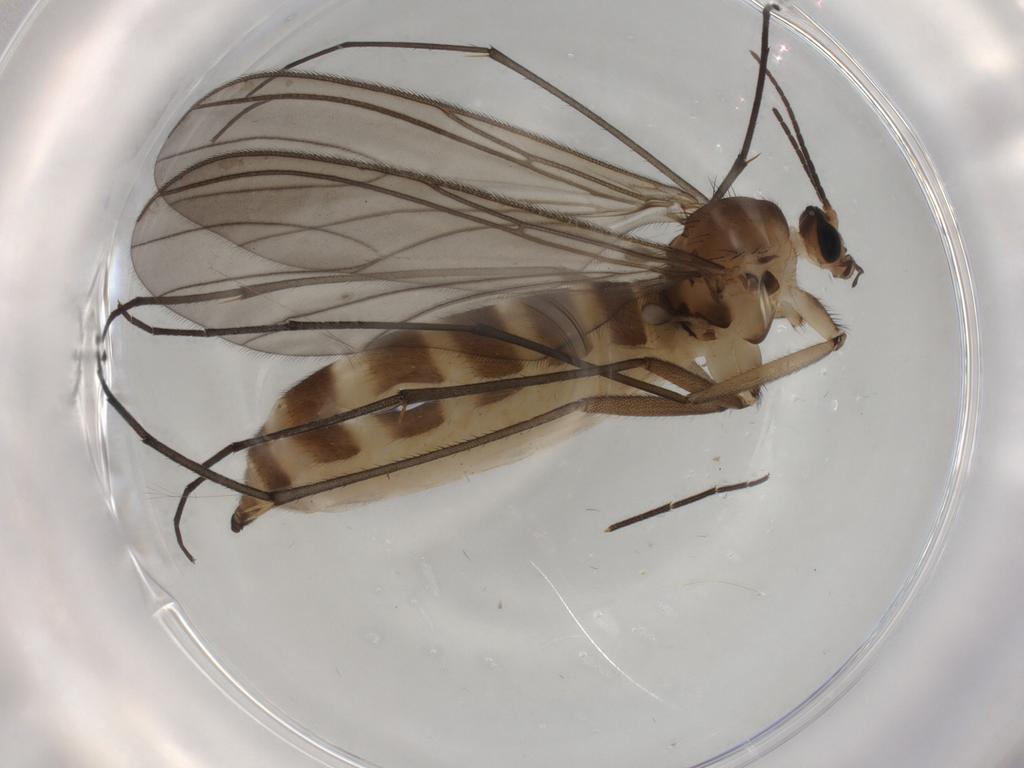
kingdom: Animalia
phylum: Arthropoda
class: Insecta
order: Diptera
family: Sciaridae
